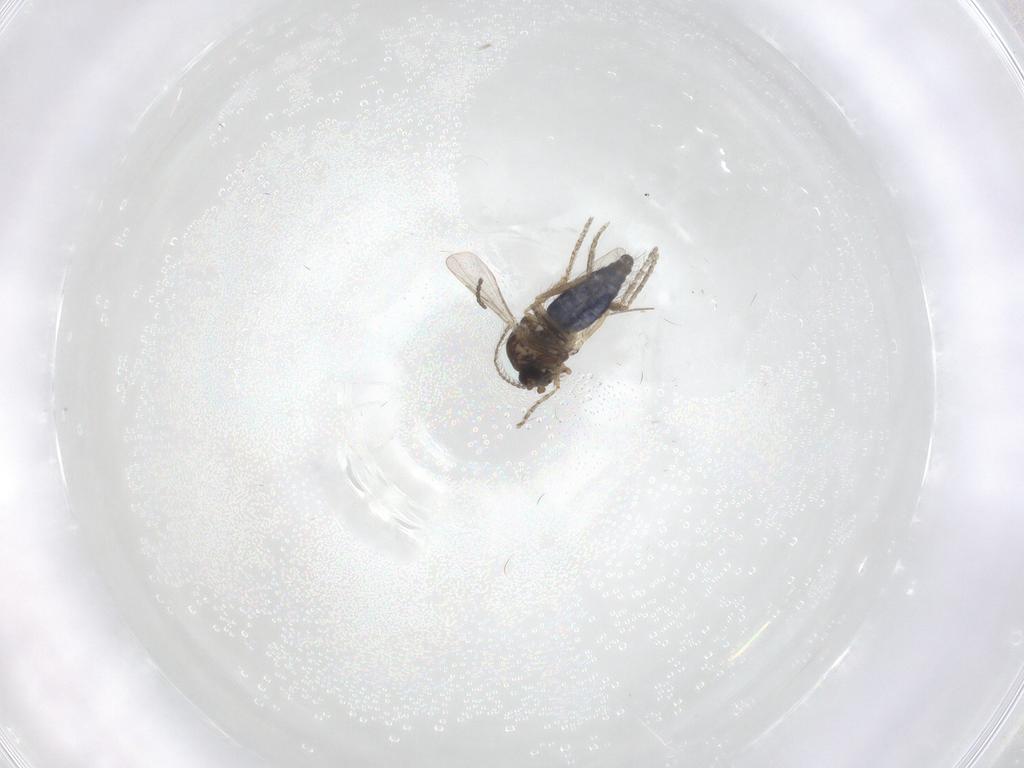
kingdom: Animalia
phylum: Arthropoda
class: Insecta
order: Diptera
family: Ceratopogonidae
